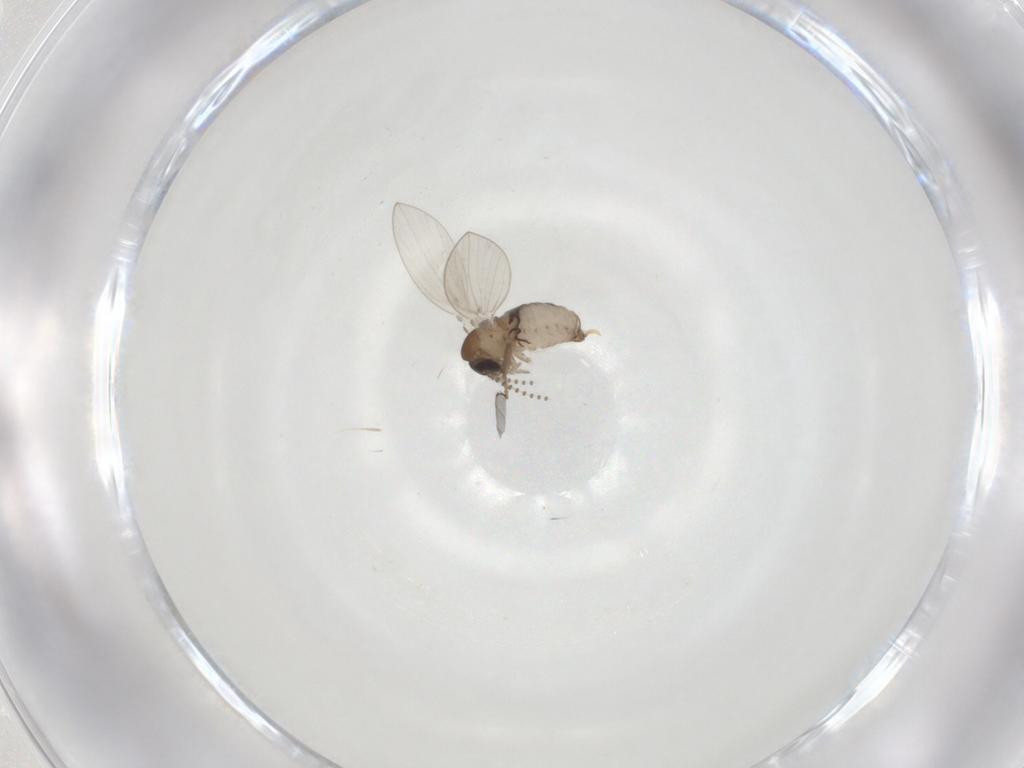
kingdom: Animalia
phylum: Arthropoda
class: Insecta
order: Diptera
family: Psychodidae
